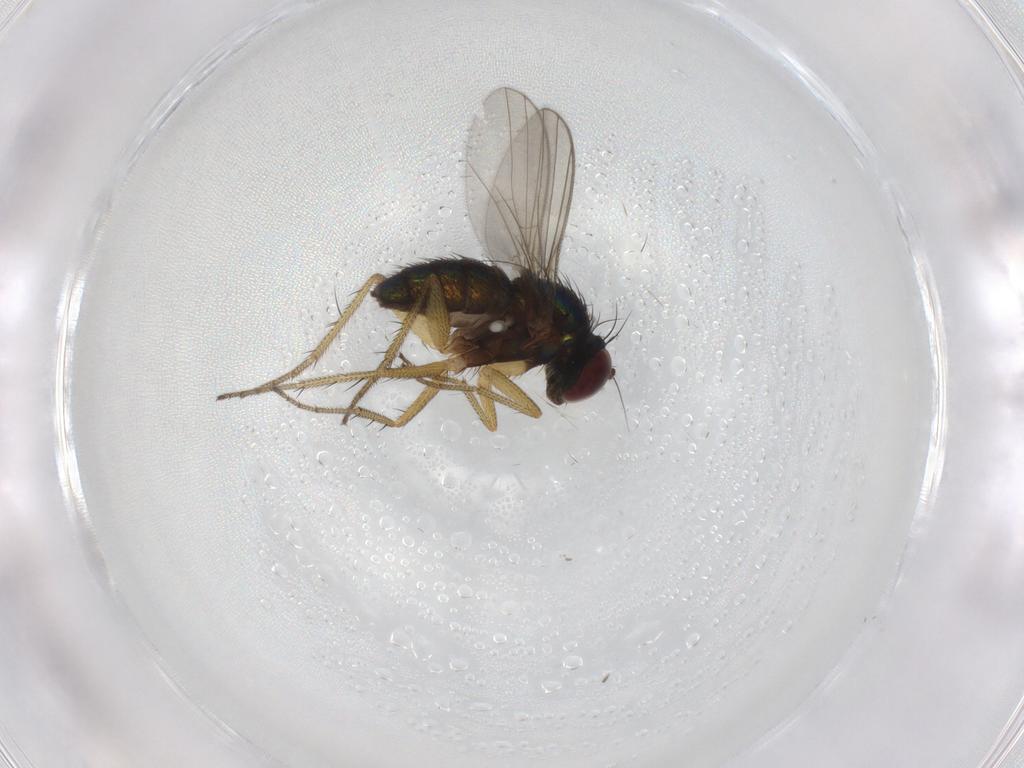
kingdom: Animalia
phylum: Arthropoda
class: Insecta
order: Diptera
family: Dolichopodidae
